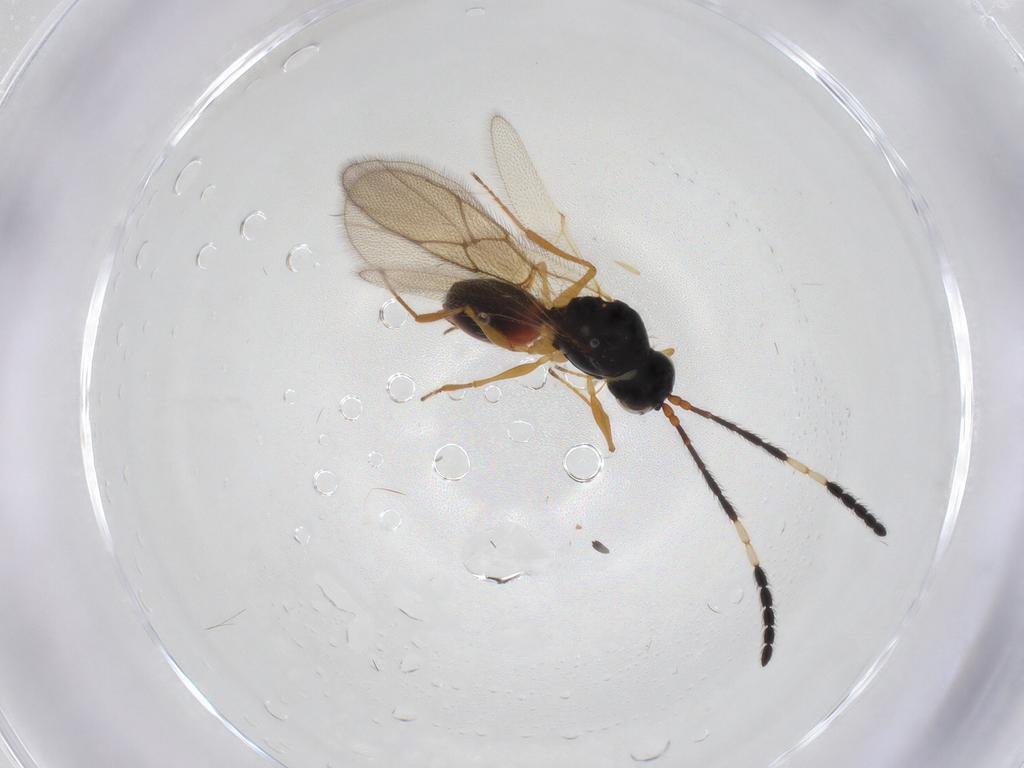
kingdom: Animalia
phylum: Arthropoda
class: Insecta
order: Hymenoptera
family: Figitidae
